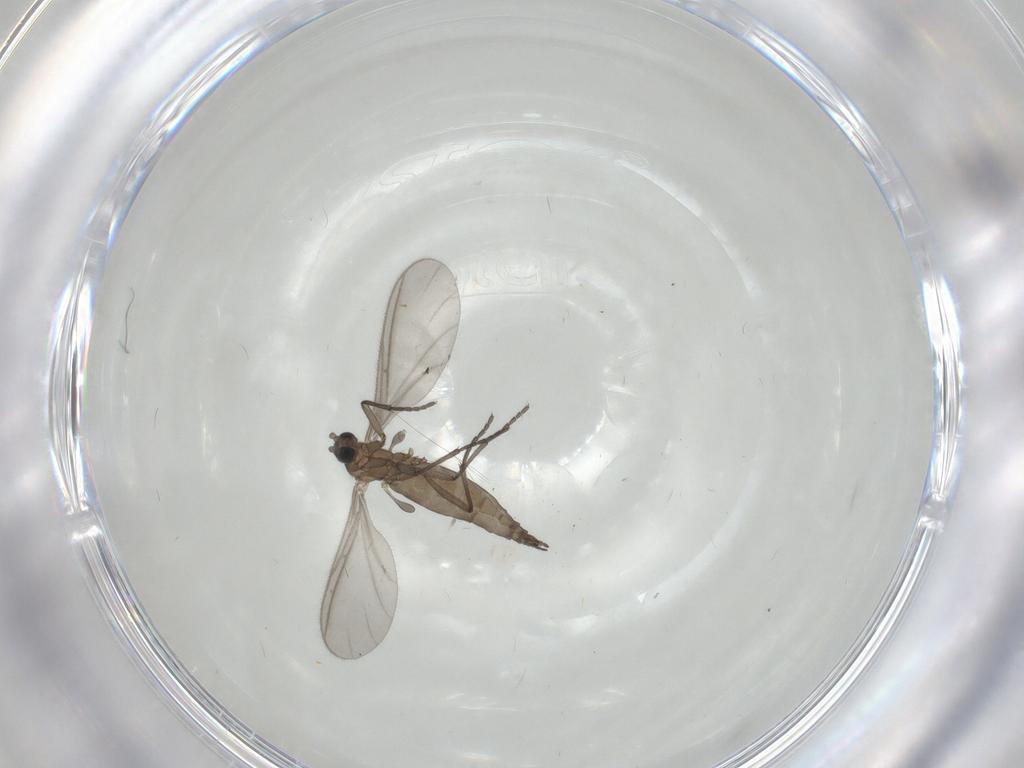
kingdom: Animalia
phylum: Arthropoda
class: Insecta
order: Diptera
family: Sciaridae
